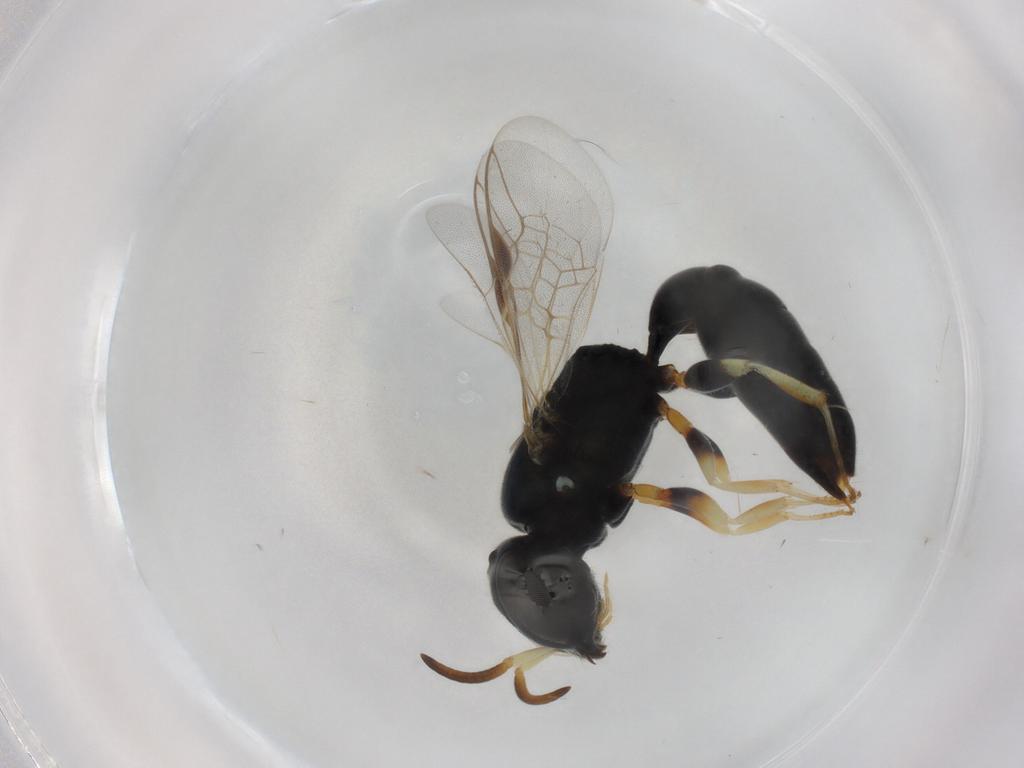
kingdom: Animalia
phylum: Arthropoda
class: Insecta
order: Hymenoptera
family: Pemphredonidae
